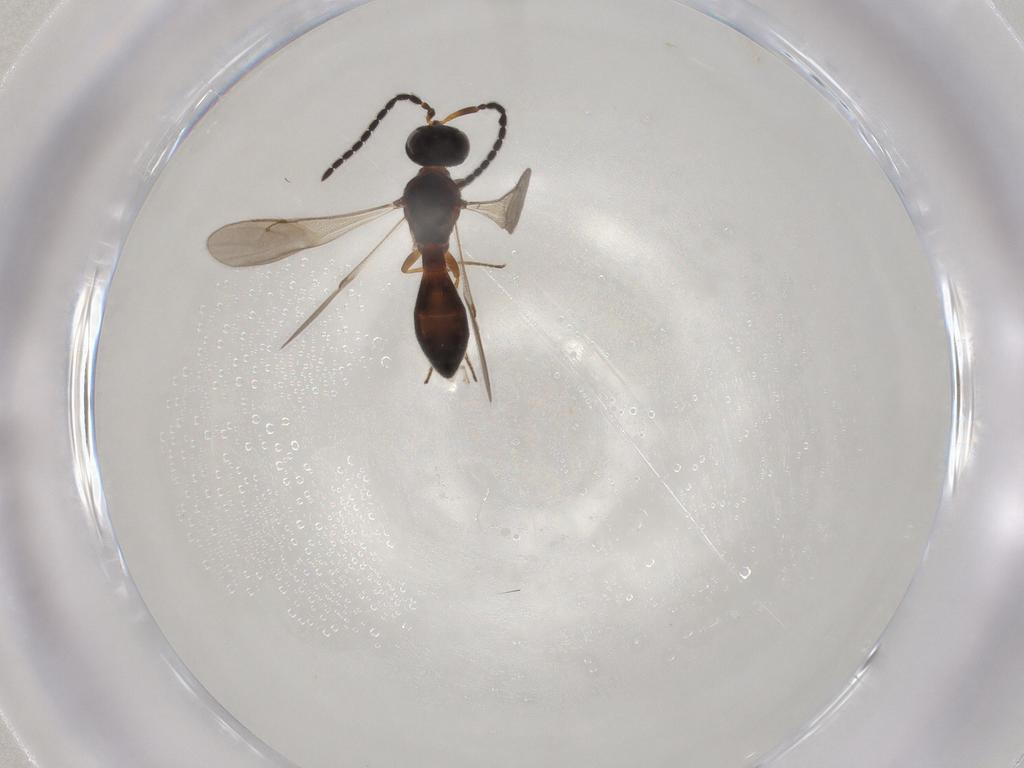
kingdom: Animalia
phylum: Arthropoda
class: Insecta
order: Hymenoptera
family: Scelionidae
